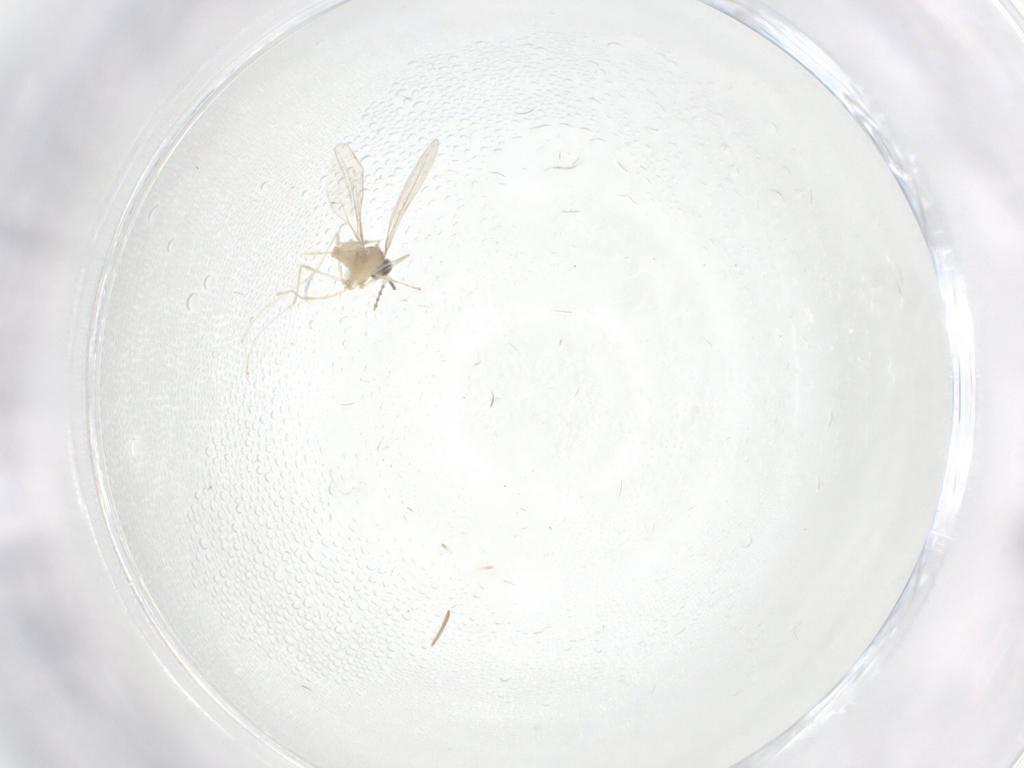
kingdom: Animalia
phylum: Arthropoda
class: Insecta
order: Diptera
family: Cecidomyiidae
